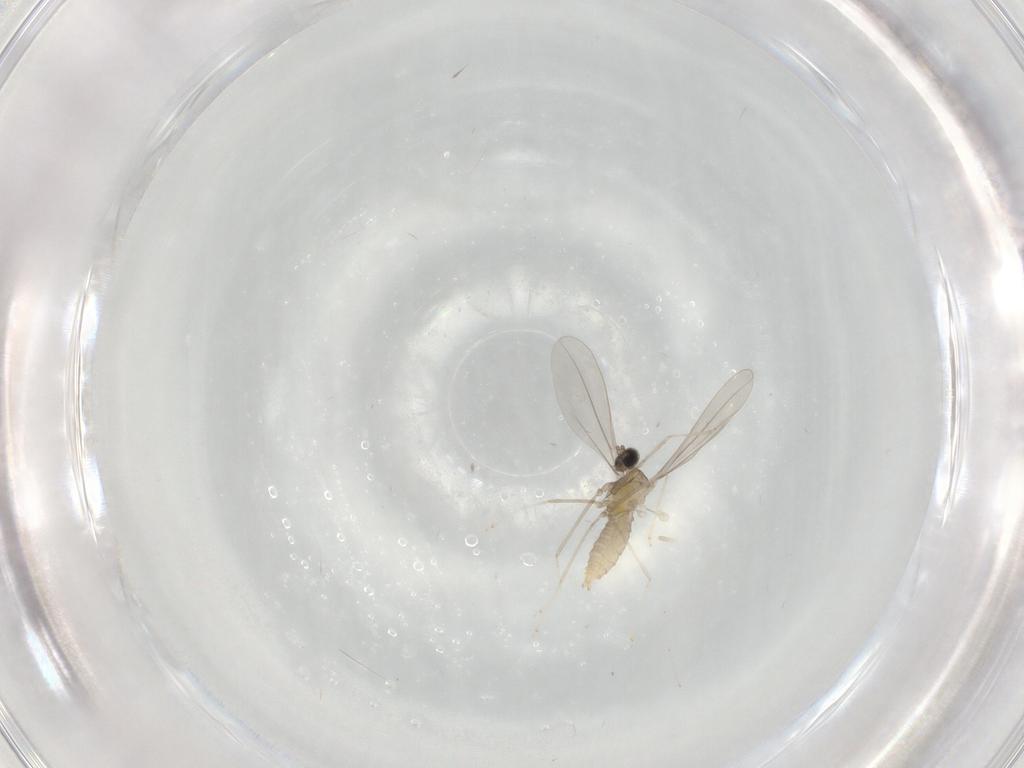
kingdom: Animalia
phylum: Arthropoda
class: Insecta
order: Diptera
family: Cecidomyiidae
